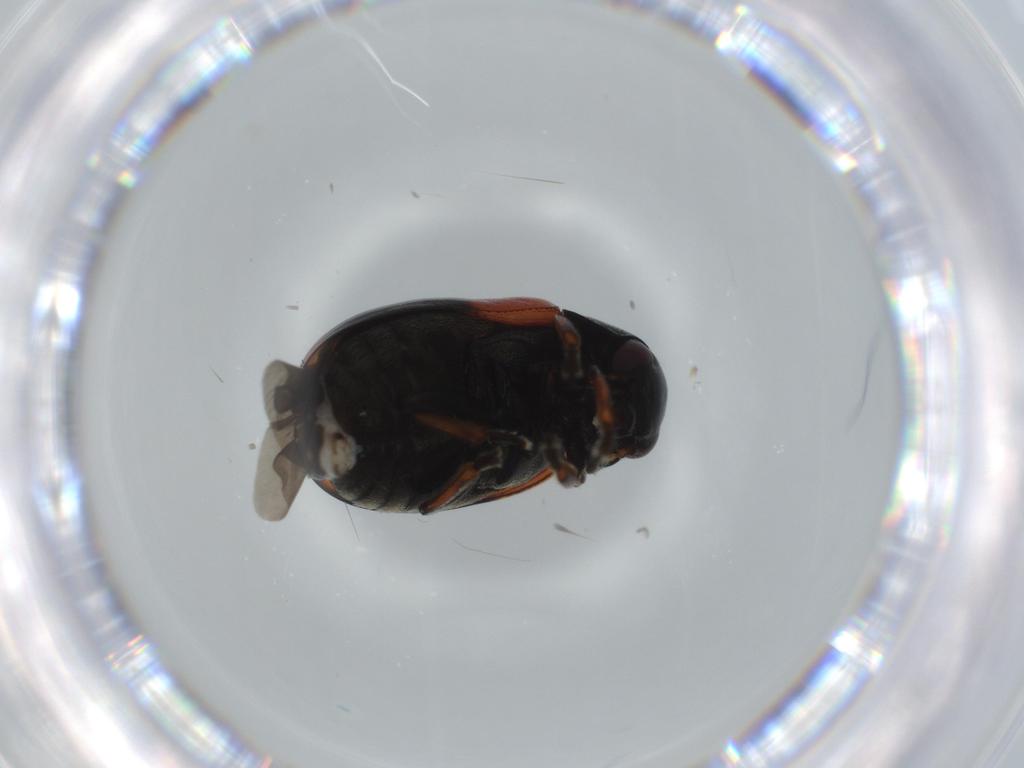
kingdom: Animalia
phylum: Arthropoda
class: Insecta
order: Coleoptera
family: Chrysomelidae
